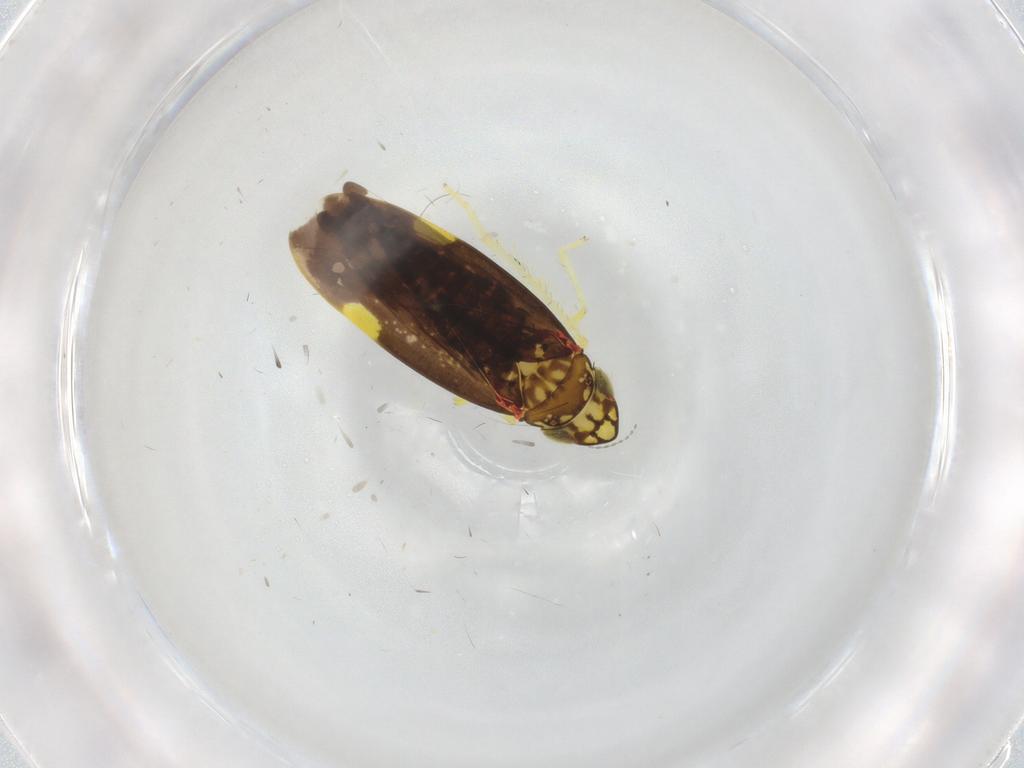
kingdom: Animalia
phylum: Arthropoda
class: Insecta
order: Hemiptera
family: Cicadellidae
